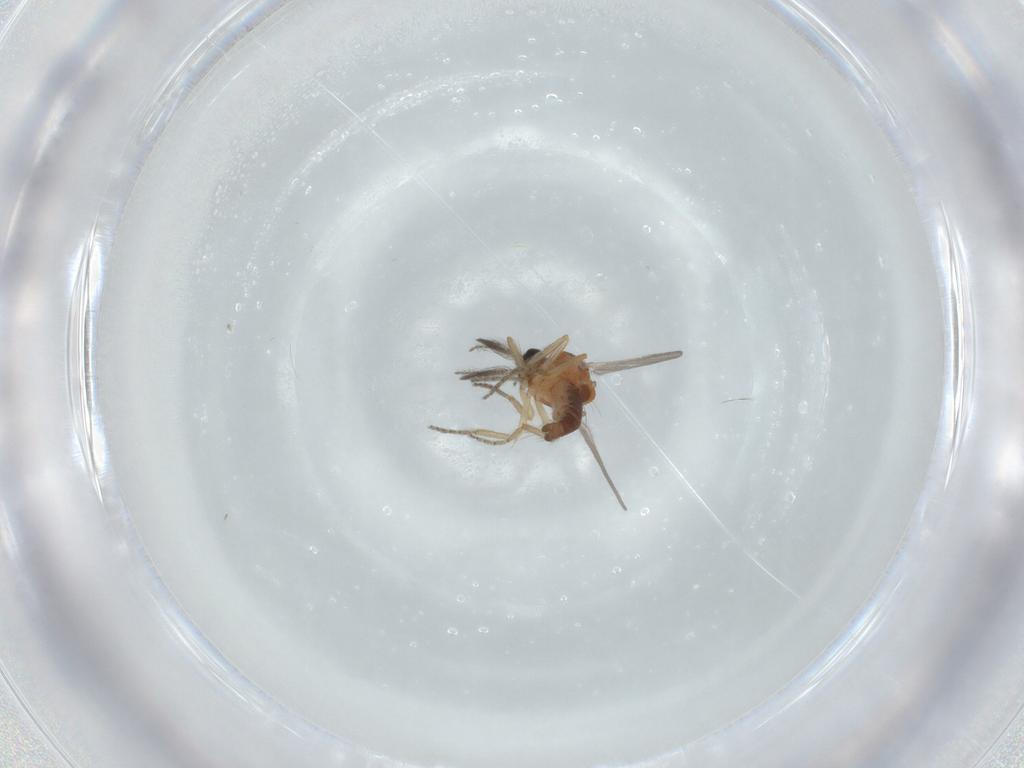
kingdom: Animalia
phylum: Arthropoda
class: Insecta
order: Diptera
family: Ceratopogonidae
